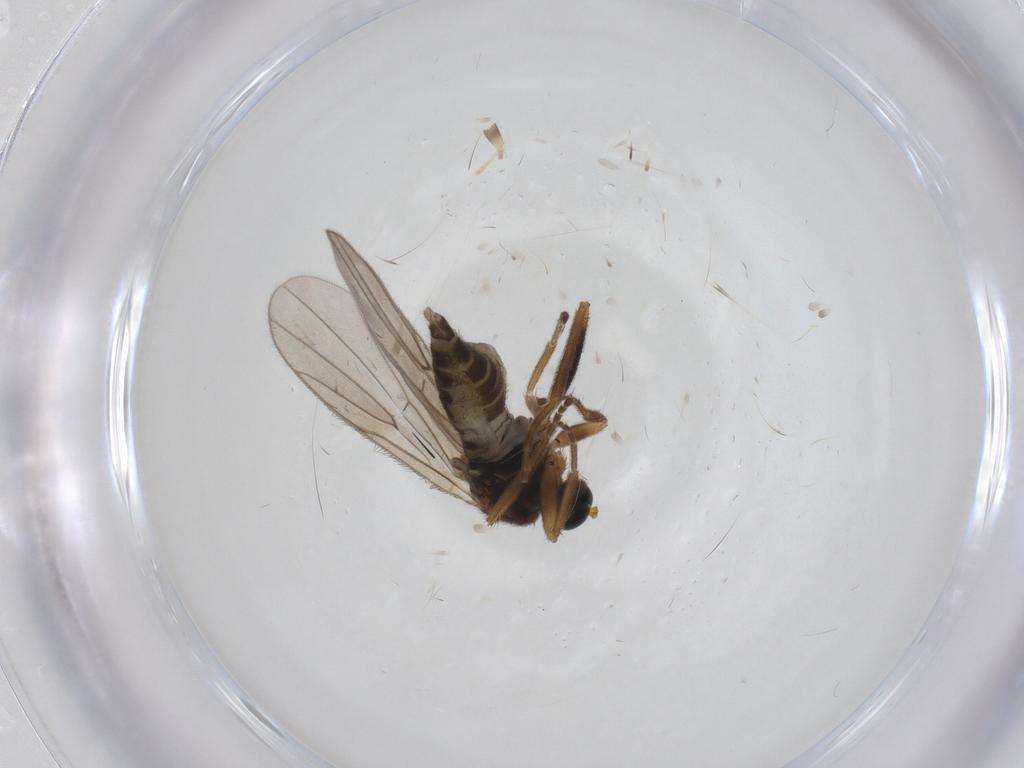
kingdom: Animalia
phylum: Arthropoda
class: Insecta
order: Diptera
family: Hybotidae
